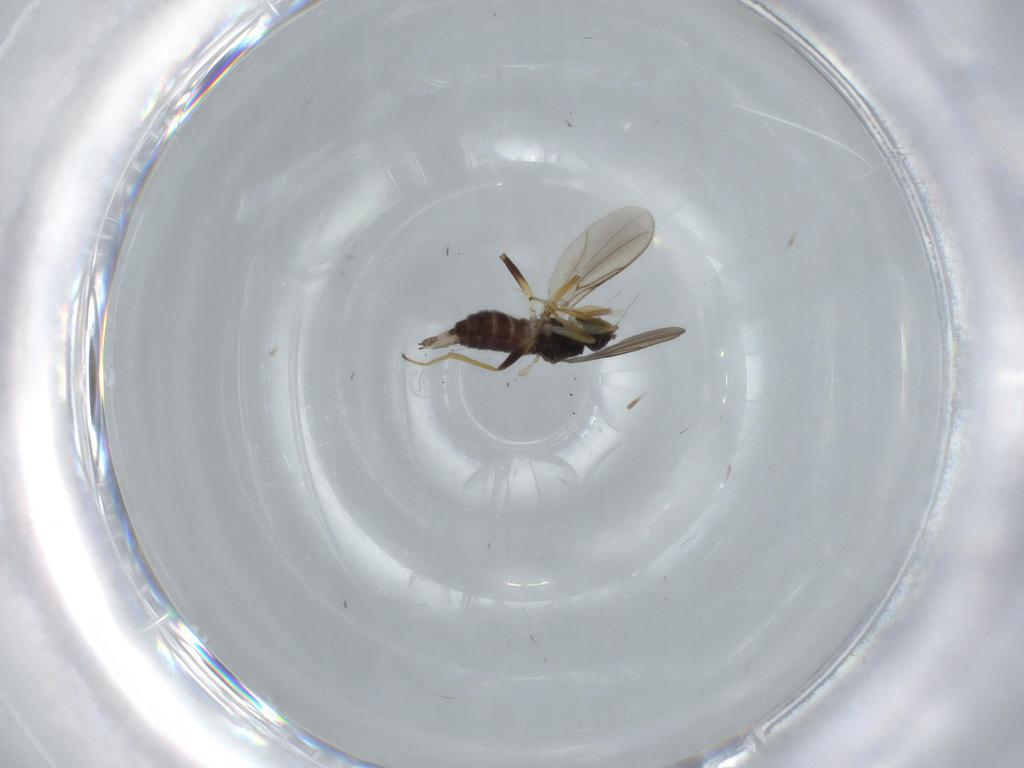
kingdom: Animalia
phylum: Arthropoda
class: Insecta
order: Diptera
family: Hybotidae
